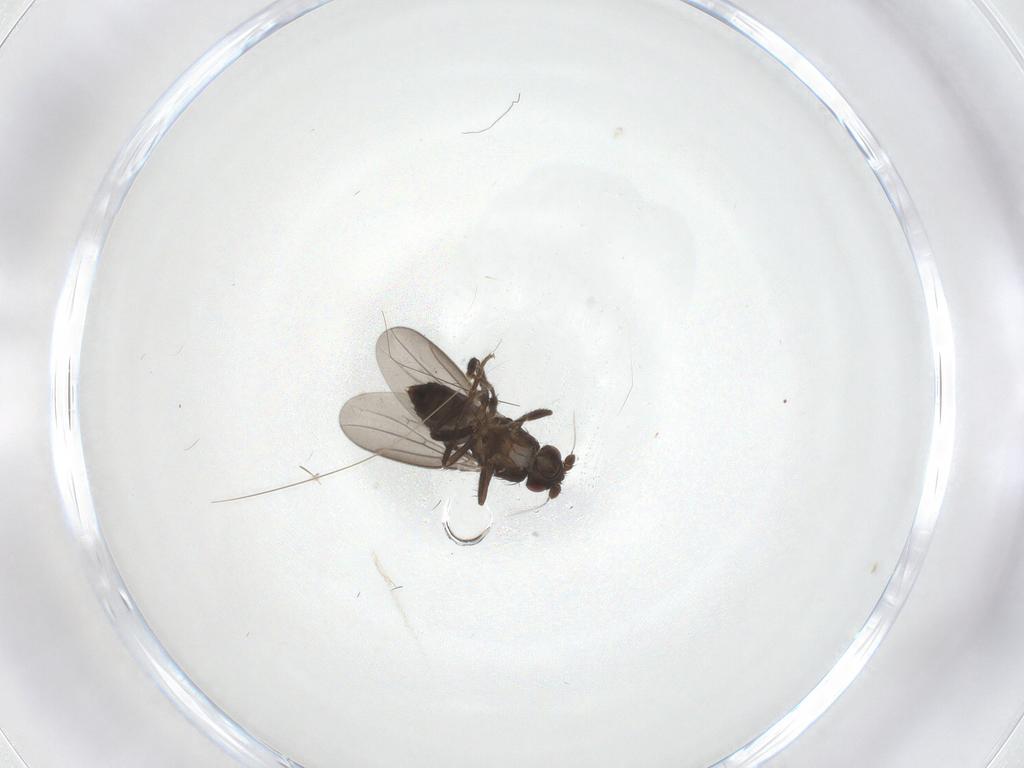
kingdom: Animalia
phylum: Arthropoda
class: Insecta
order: Diptera
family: Sphaeroceridae
